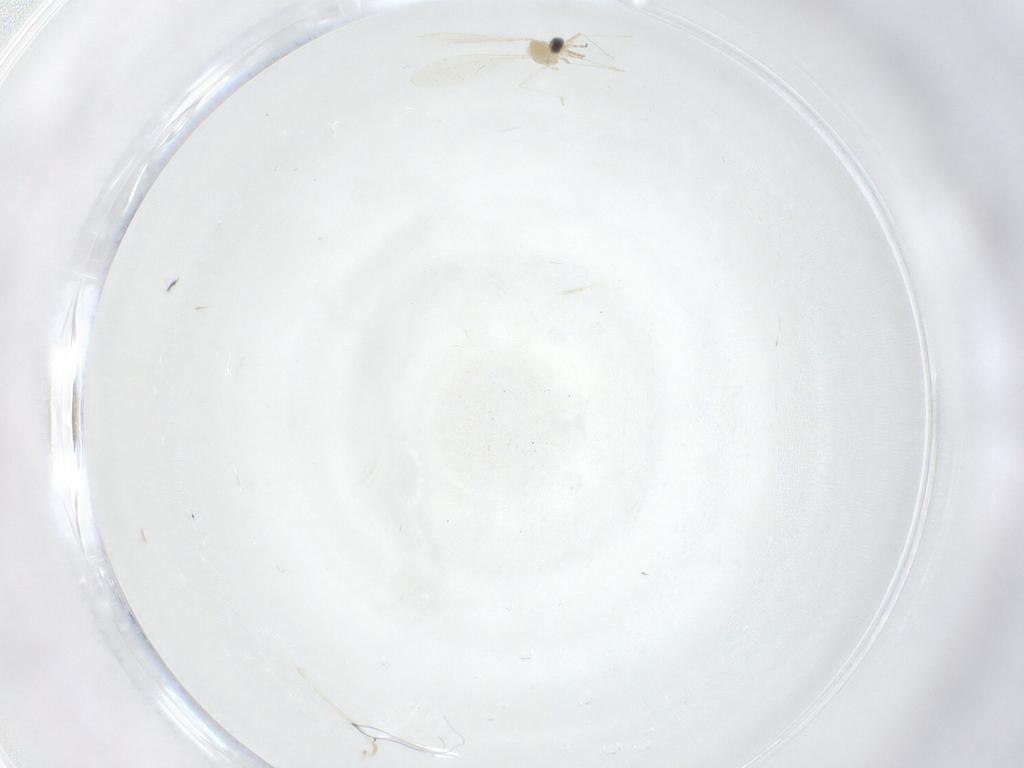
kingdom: Animalia
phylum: Arthropoda
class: Insecta
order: Diptera
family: Cecidomyiidae
